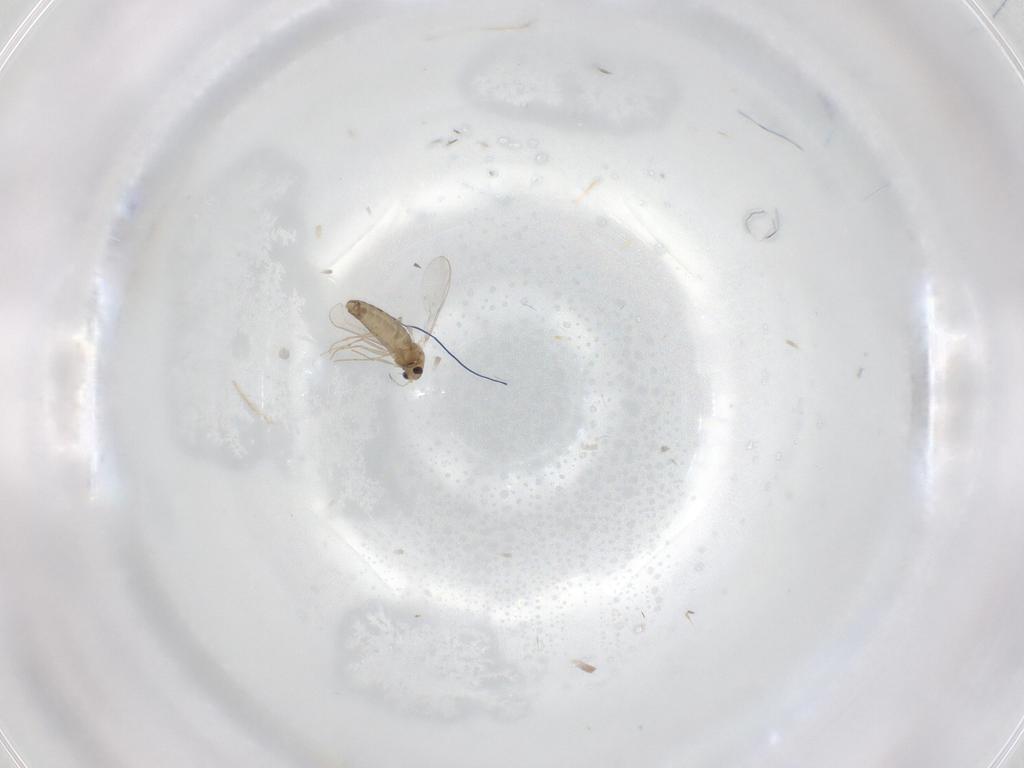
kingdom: Animalia
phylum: Arthropoda
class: Insecta
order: Diptera
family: Chironomidae
